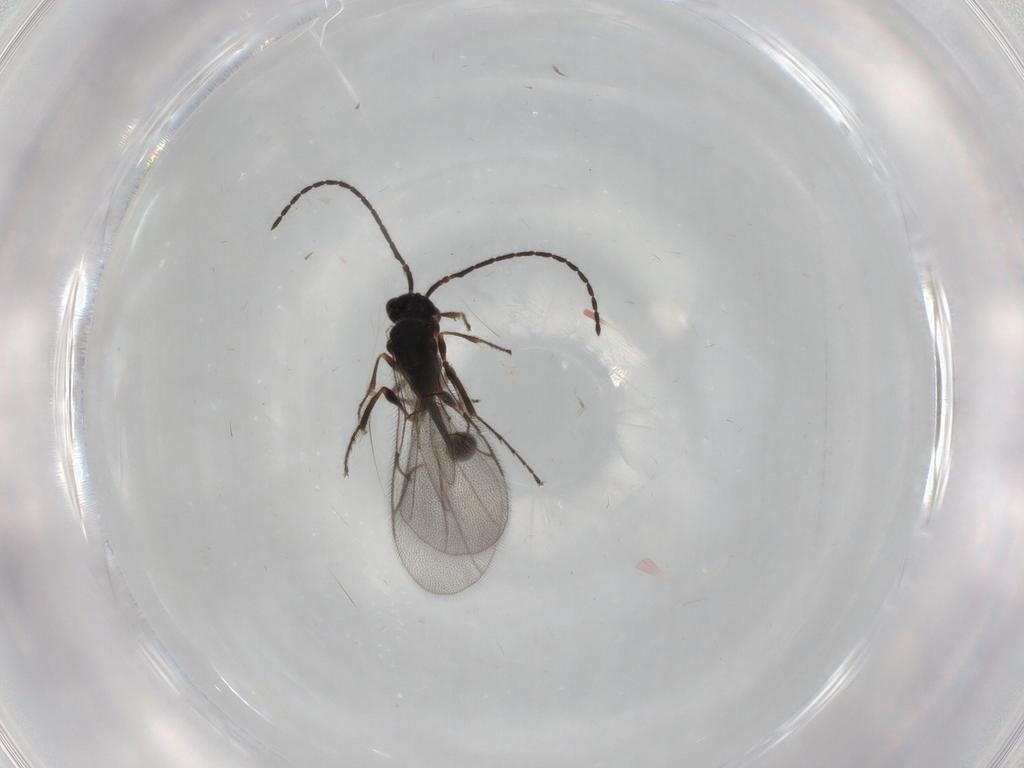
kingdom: Animalia
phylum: Arthropoda
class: Insecta
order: Hymenoptera
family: Diapriidae
